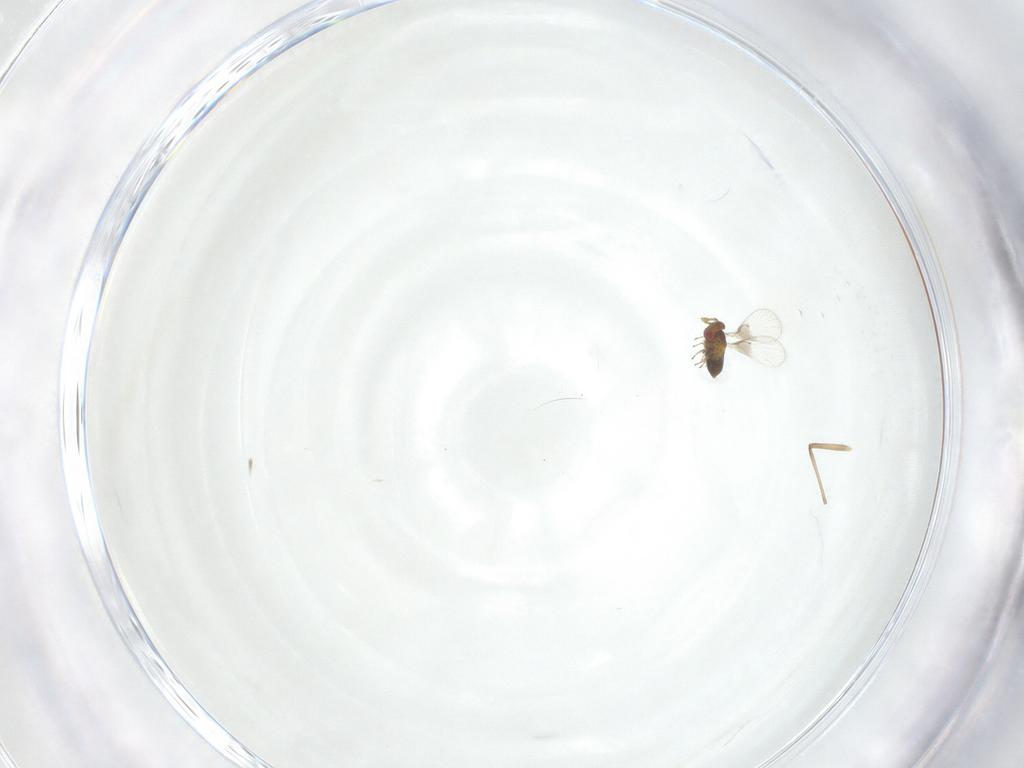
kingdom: Animalia
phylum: Arthropoda
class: Insecta
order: Hymenoptera
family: Trichogrammatidae
